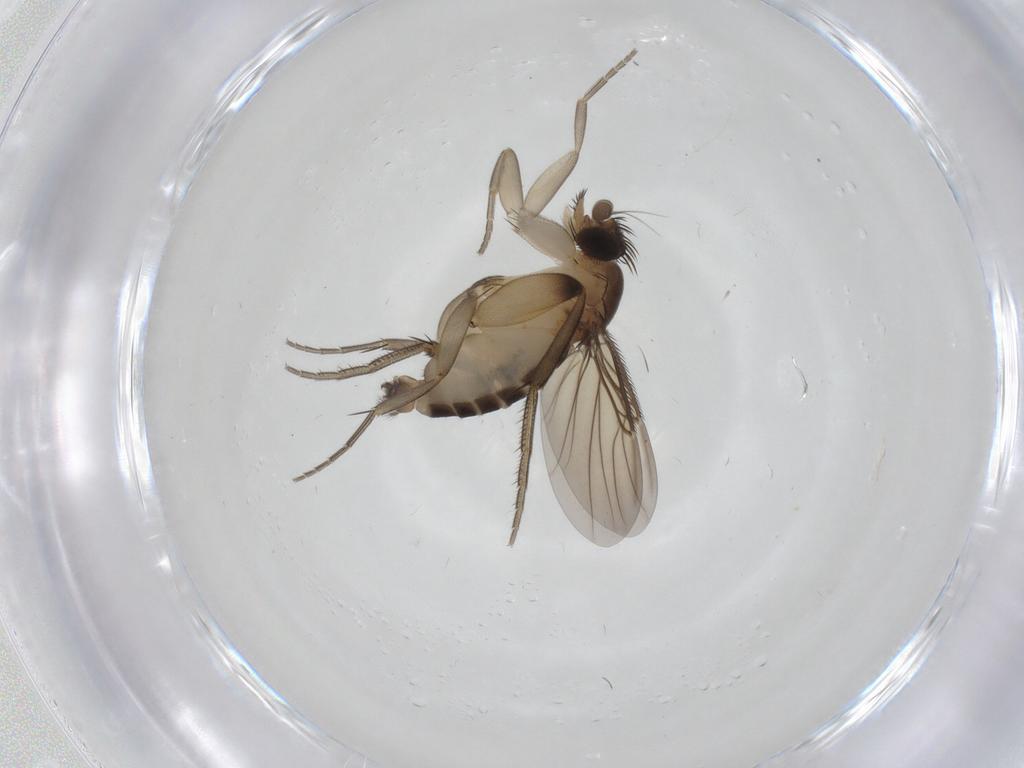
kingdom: Animalia
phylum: Arthropoda
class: Insecta
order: Diptera
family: Phoridae
